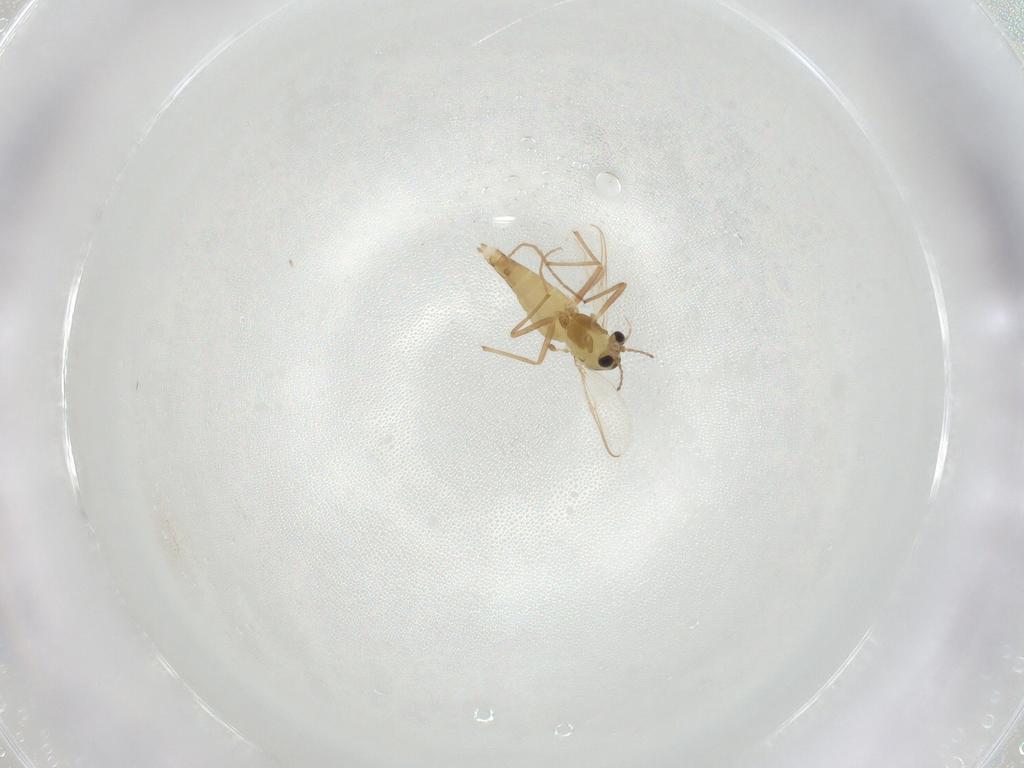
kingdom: Animalia
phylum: Arthropoda
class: Insecta
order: Diptera
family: Chironomidae
